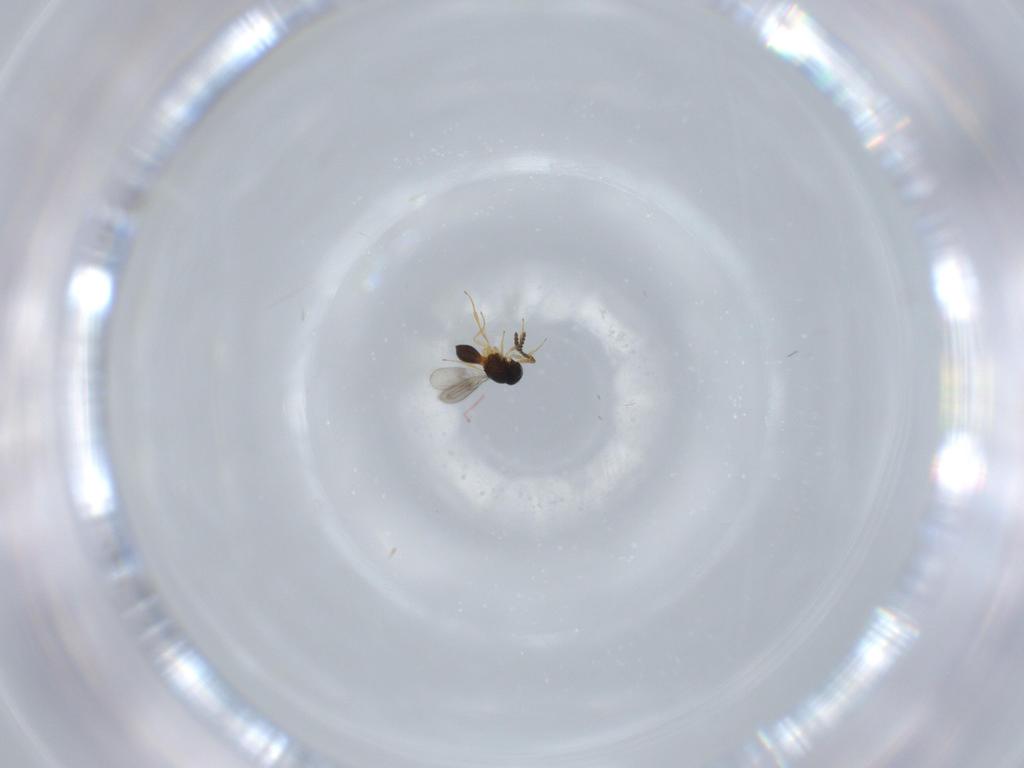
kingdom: Animalia
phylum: Arthropoda
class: Insecta
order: Hymenoptera
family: Scelionidae
